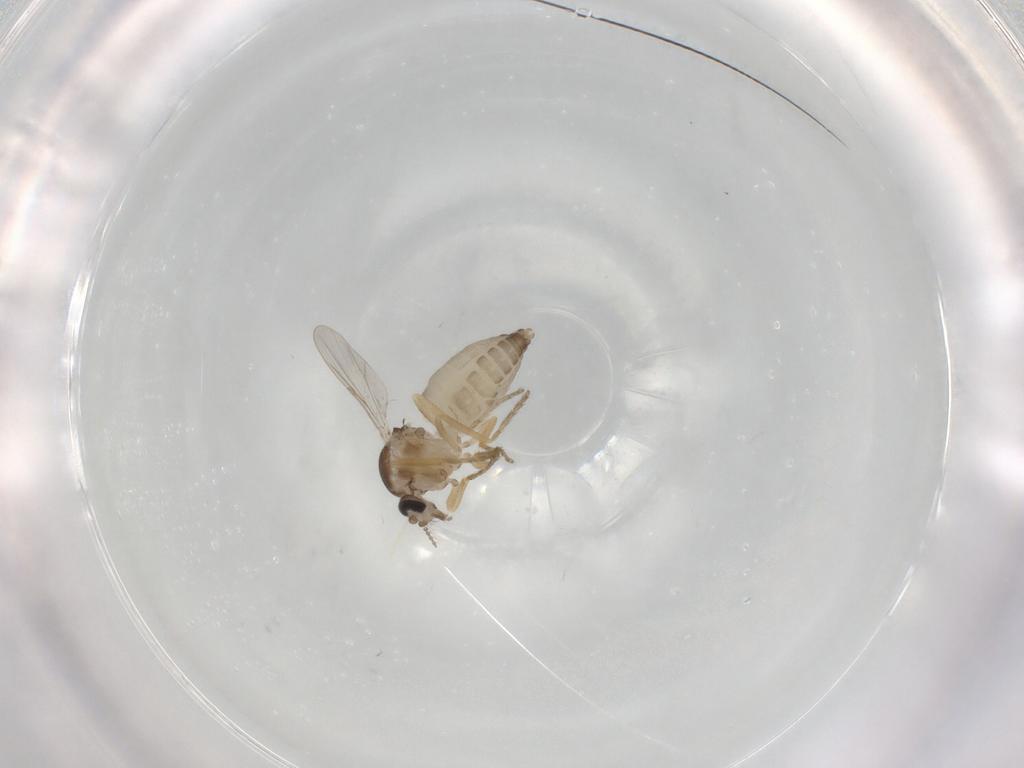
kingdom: Animalia
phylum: Arthropoda
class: Insecta
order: Diptera
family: Ceratopogonidae
